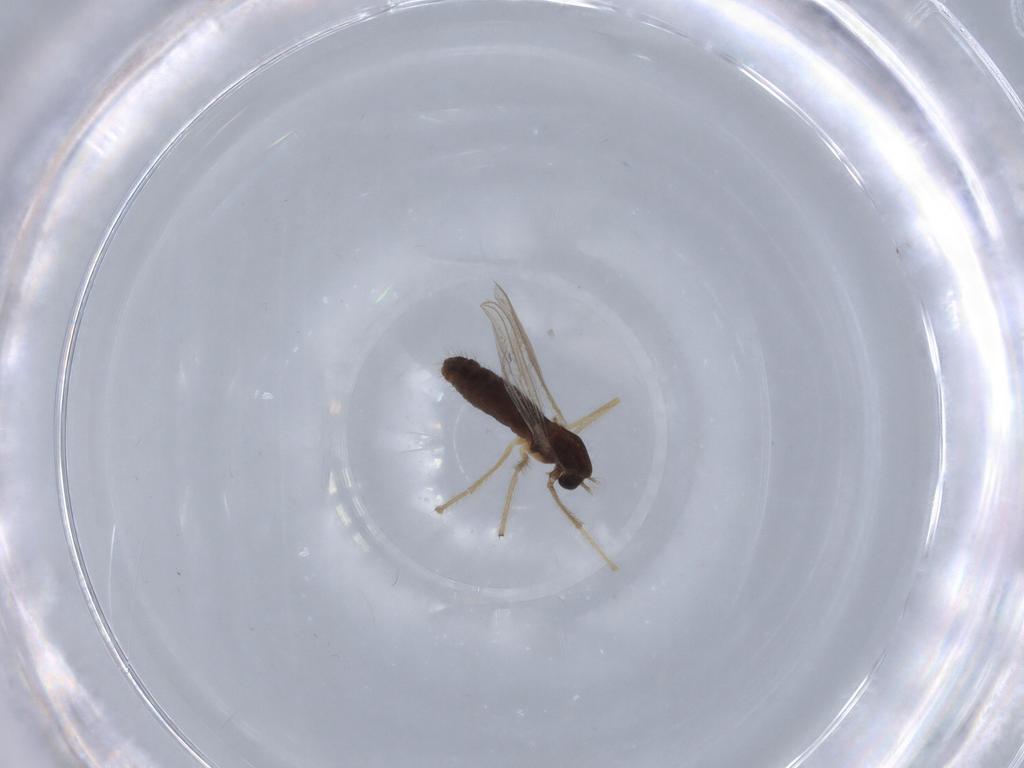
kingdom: Animalia
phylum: Arthropoda
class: Insecta
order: Diptera
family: Chironomidae
